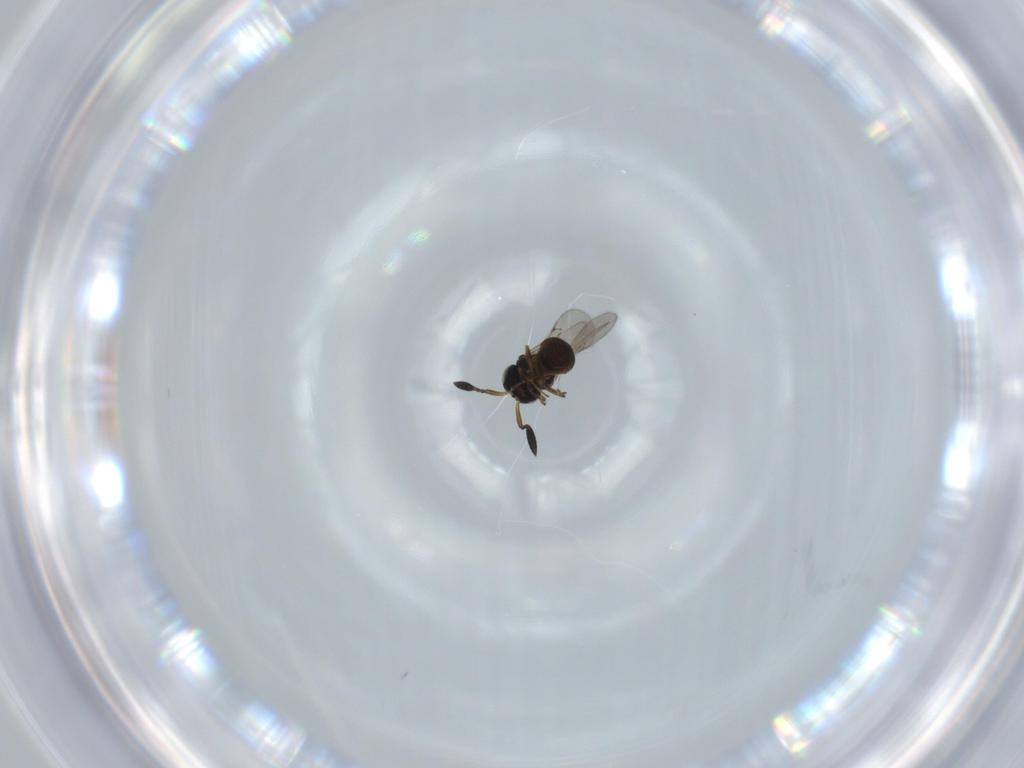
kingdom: Animalia
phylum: Arthropoda
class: Insecta
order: Hymenoptera
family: Scelionidae
